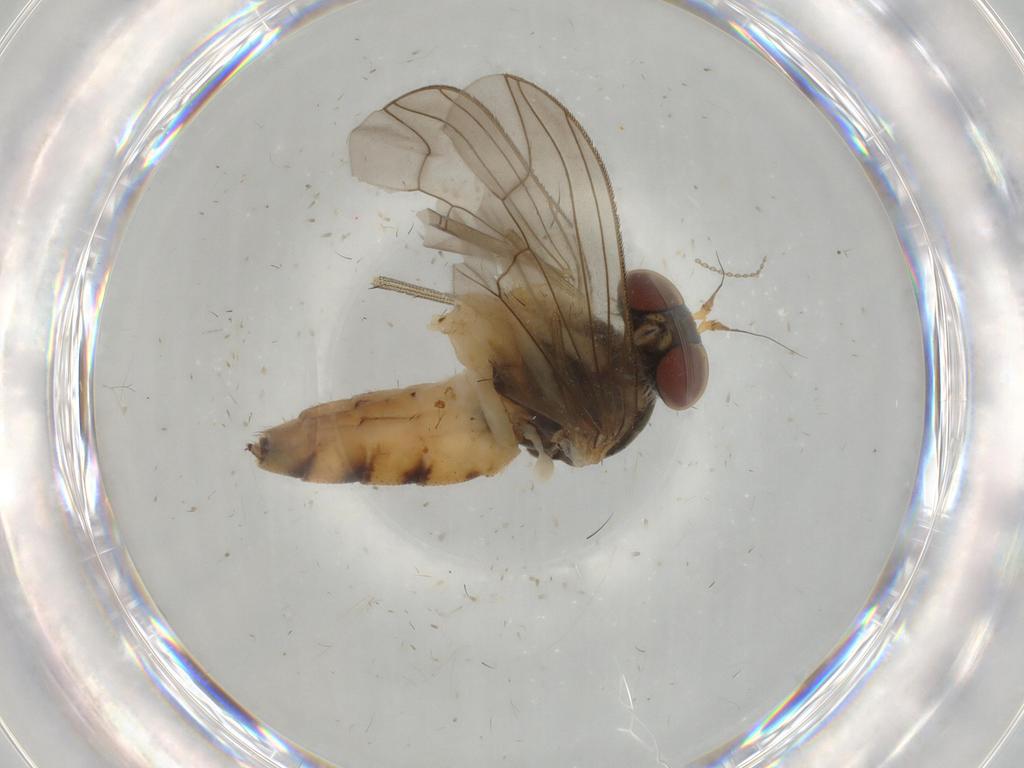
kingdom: Animalia
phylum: Arthropoda
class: Insecta
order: Diptera
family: Dolichopodidae
